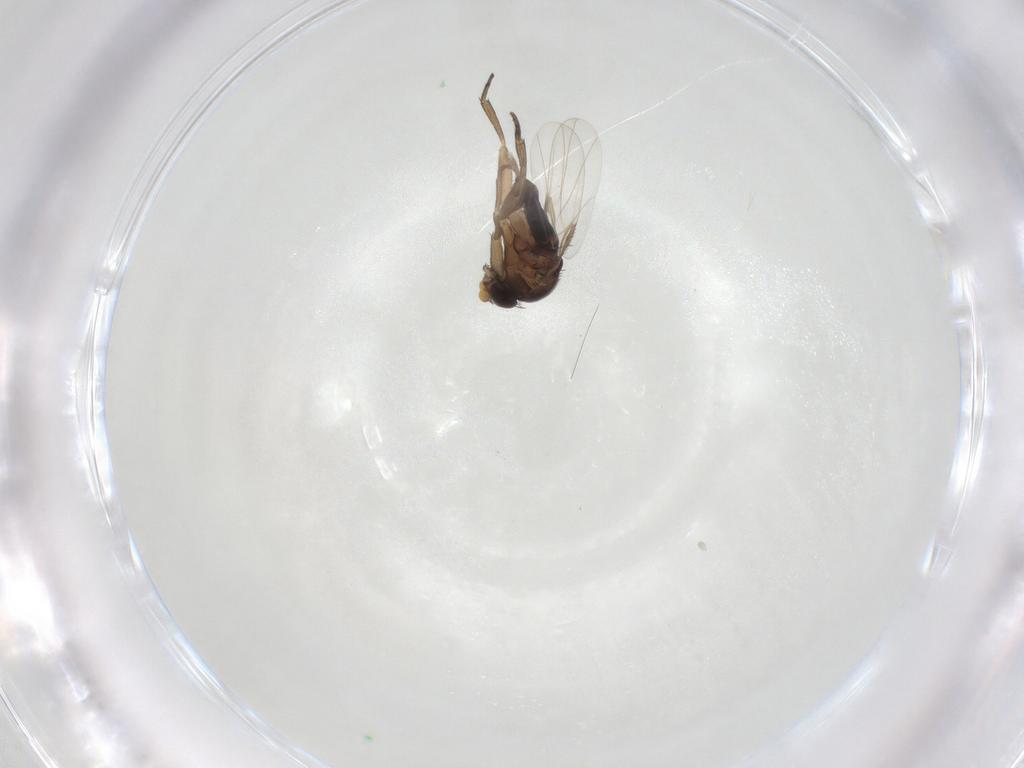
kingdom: Animalia
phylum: Arthropoda
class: Insecta
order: Diptera
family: Phoridae
